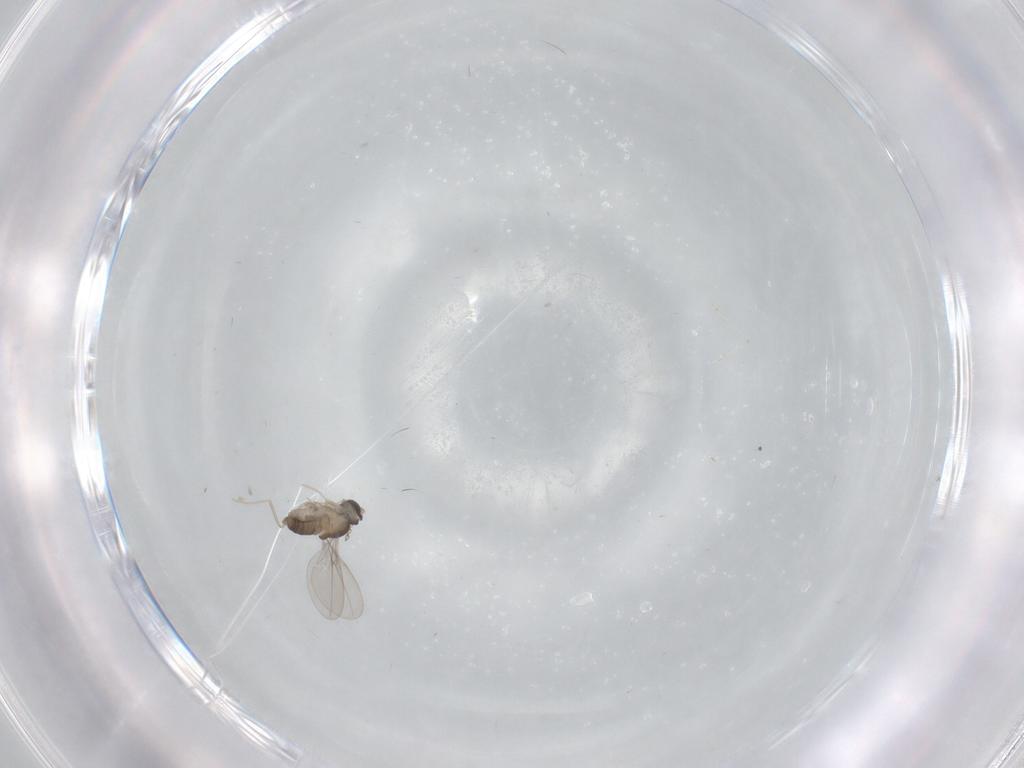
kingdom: Animalia
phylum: Arthropoda
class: Insecta
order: Diptera
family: Cecidomyiidae
